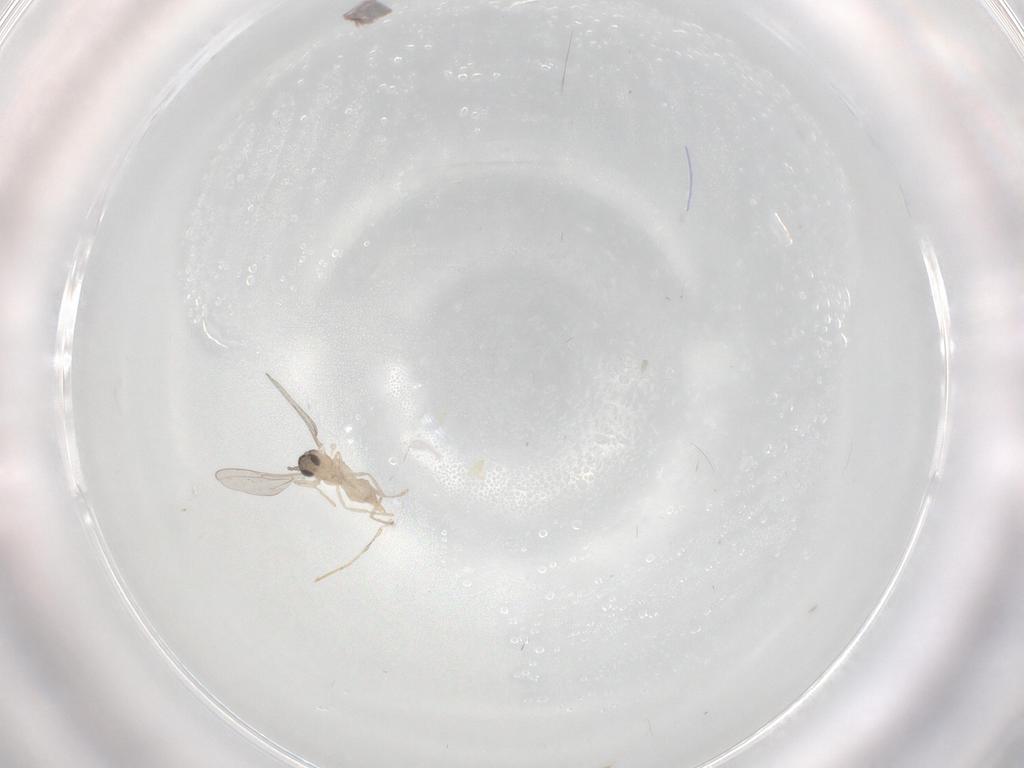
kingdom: Animalia
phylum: Arthropoda
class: Insecta
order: Diptera
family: Cecidomyiidae
